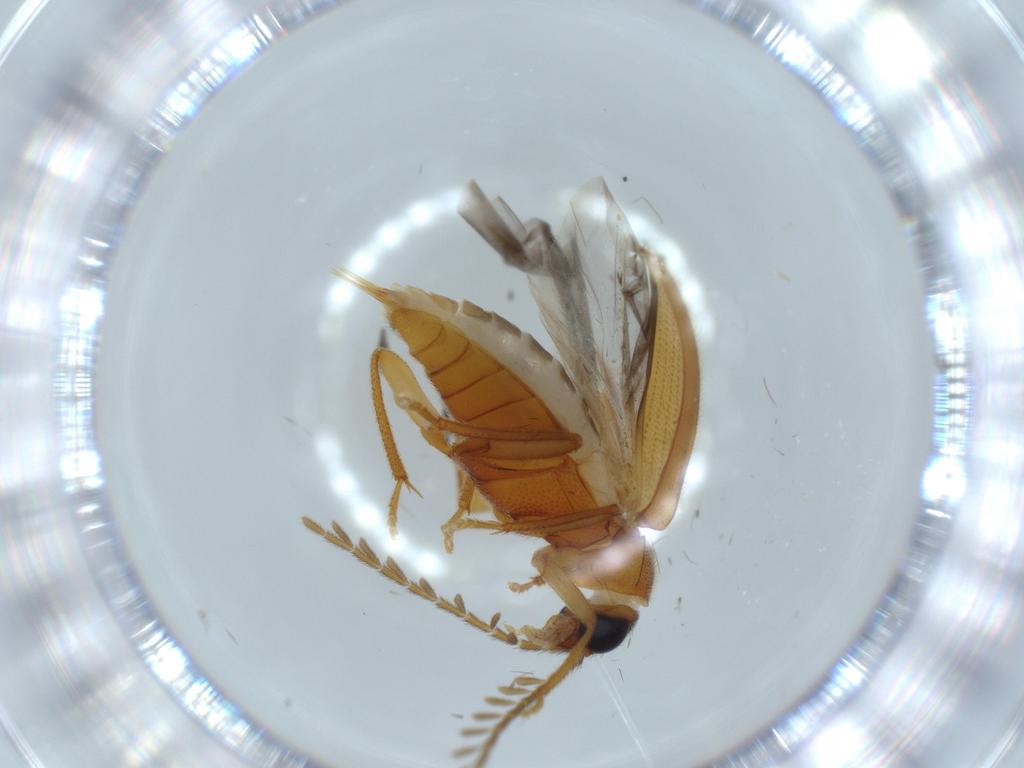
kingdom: Animalia
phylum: Arthropoda
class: Insecta
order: Coleoptera
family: Ptilodactylidae
